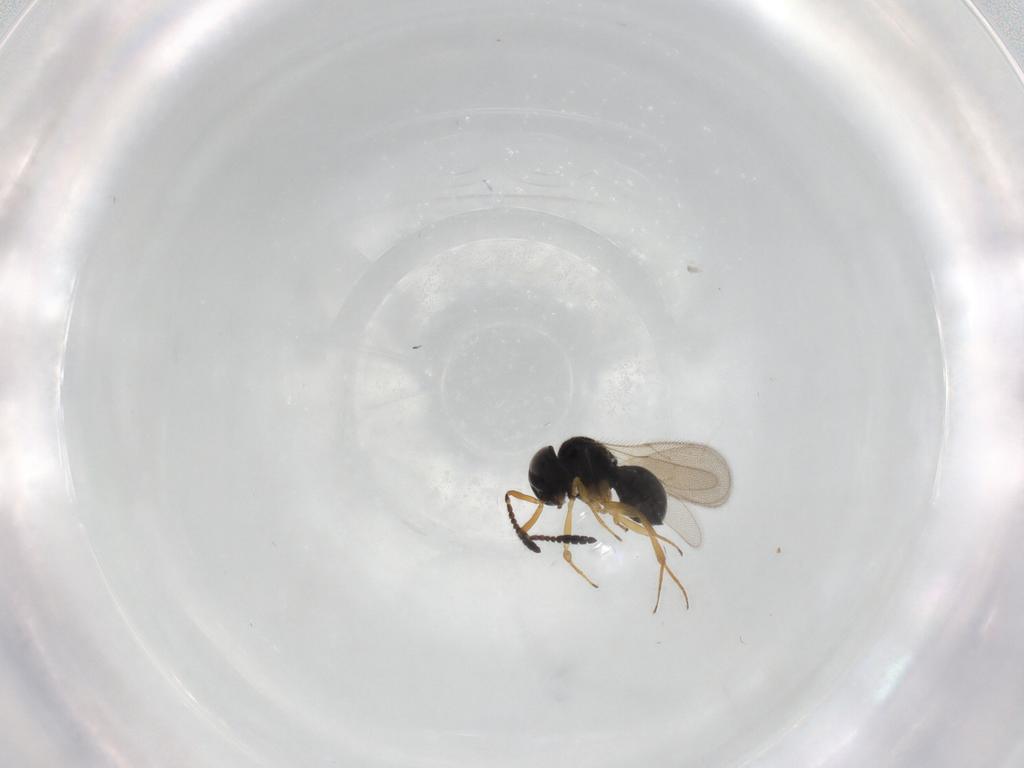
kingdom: Animalia
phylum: Arthropoda
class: Insecta
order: Hymenoptera
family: Scelionidae
